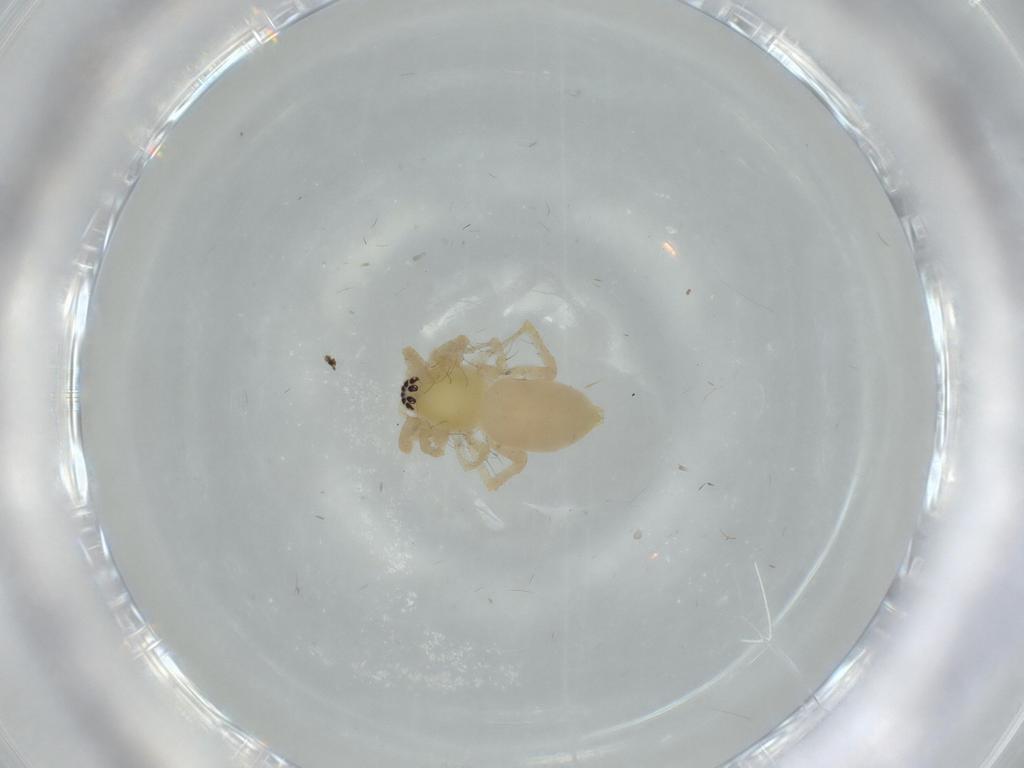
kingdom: Animalia
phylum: Arthropoda
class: Arachnida
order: Araneae
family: Anyphaenidae
